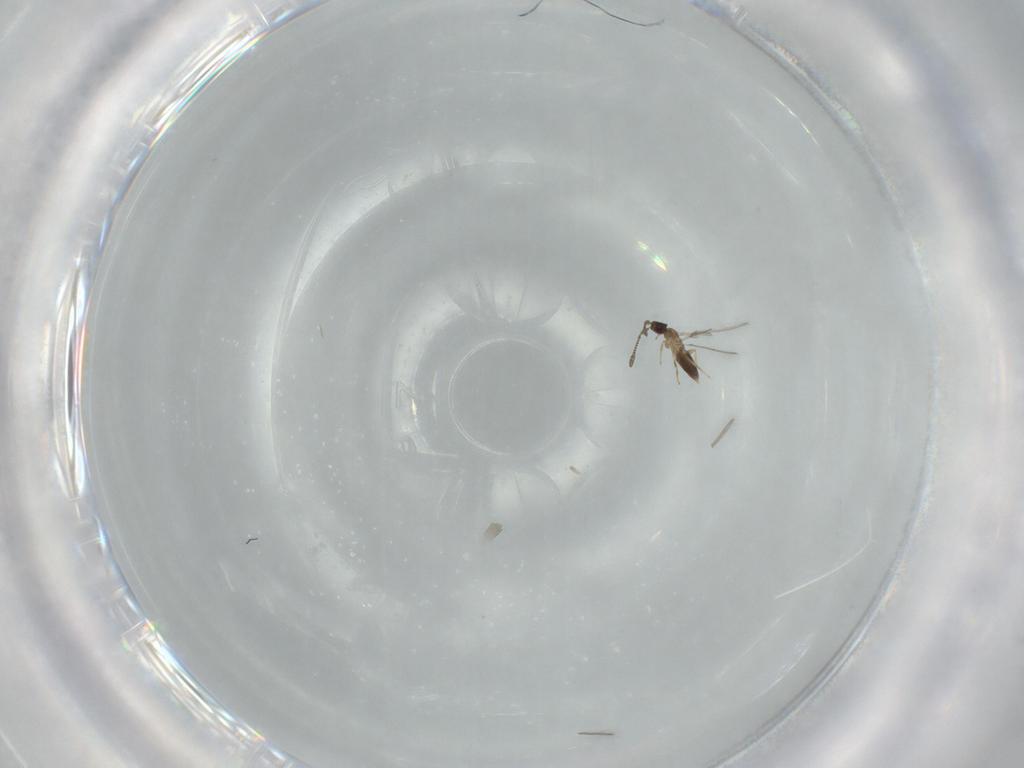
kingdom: Animalia
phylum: Arthropoda
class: Insecta
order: Hymenoptera
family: Mymaridae
